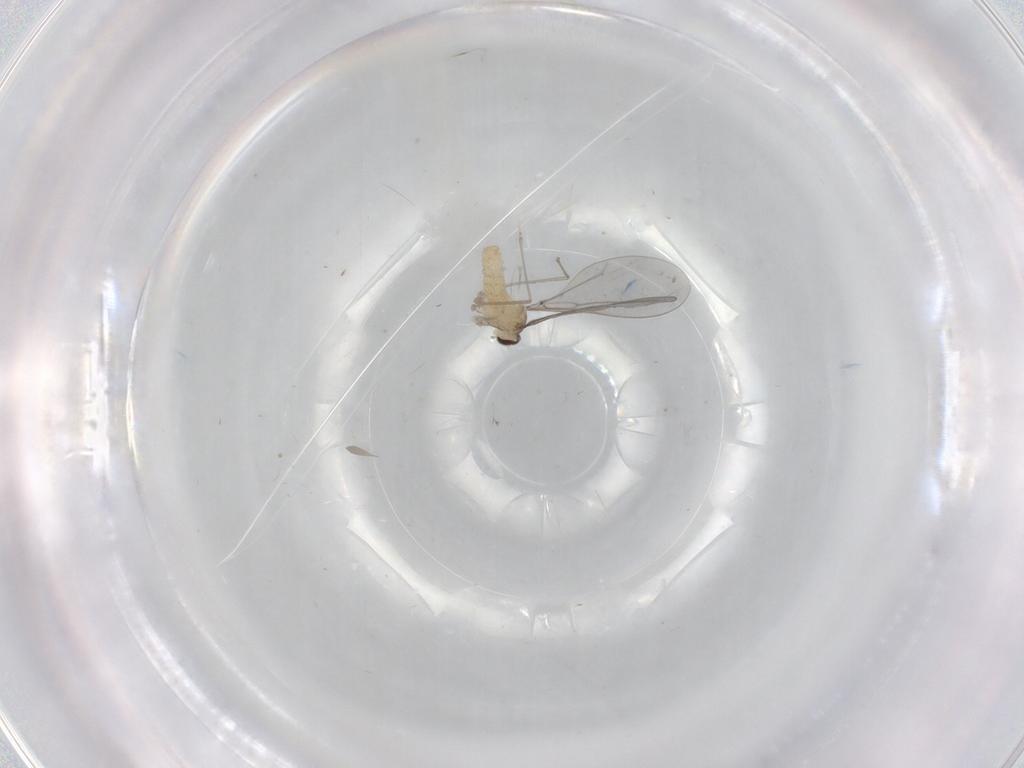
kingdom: Animalia
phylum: Arthropoda
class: Insecta
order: Diptera
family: Cecidomyiidae
